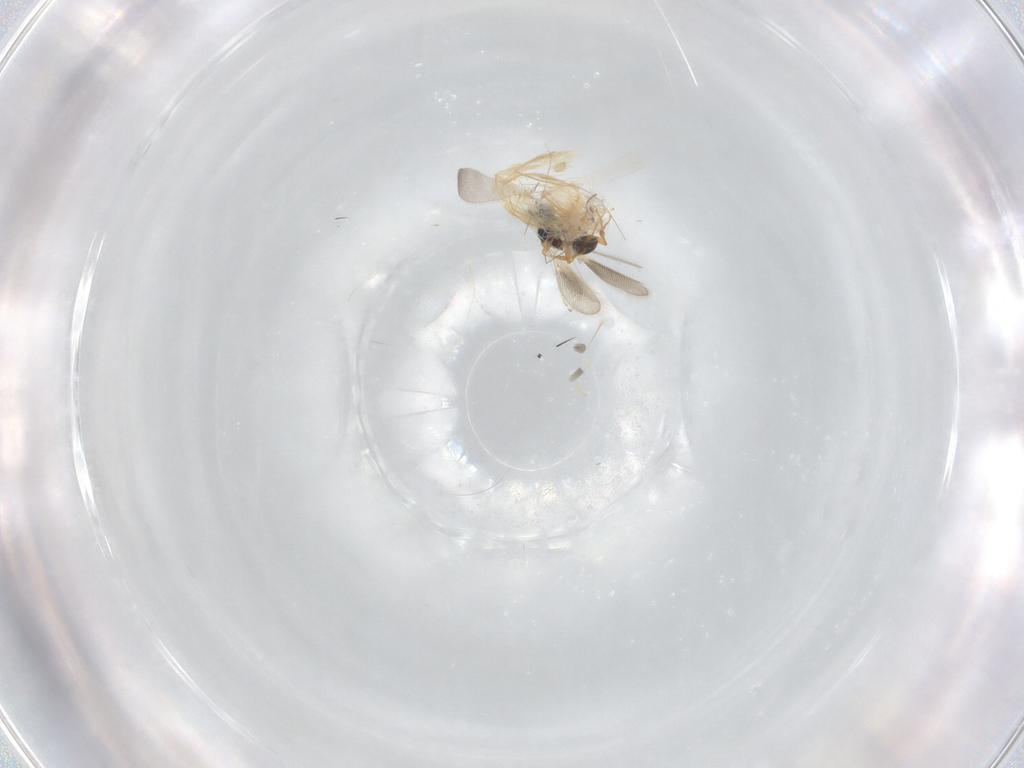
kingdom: Animalia
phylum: Arthropoda
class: Insecta
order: Hymenoptera
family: Platygastridae
